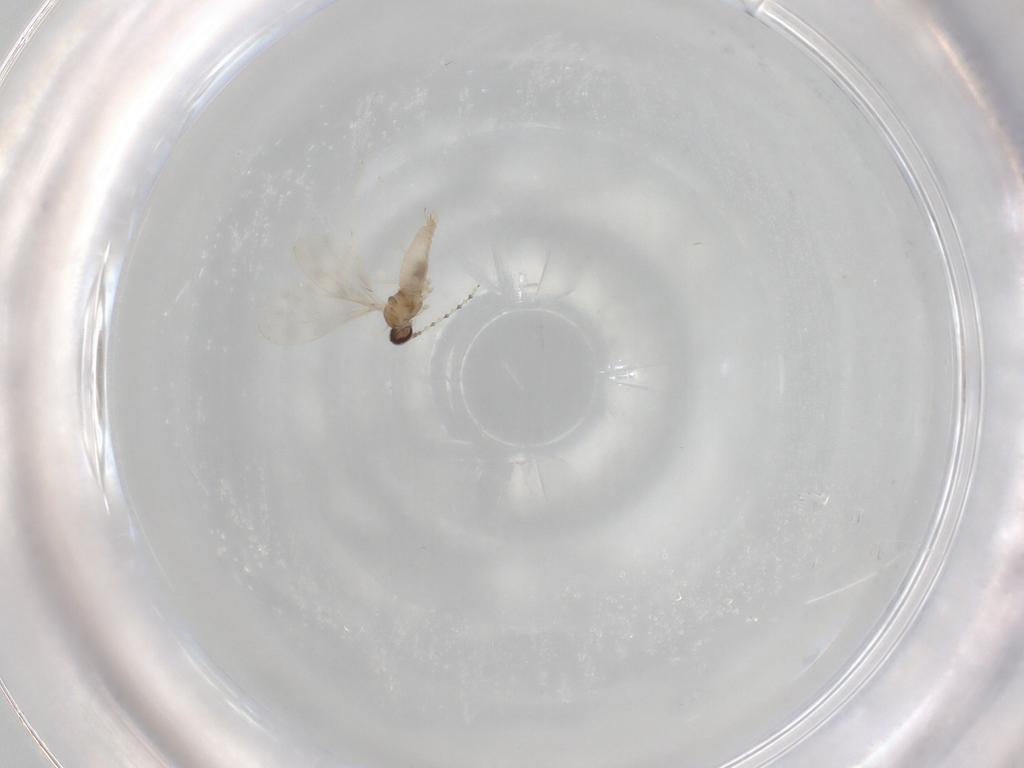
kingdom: Animalia
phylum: Arthropoda
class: Insecta
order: Diptera
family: Cecidomyiidae
